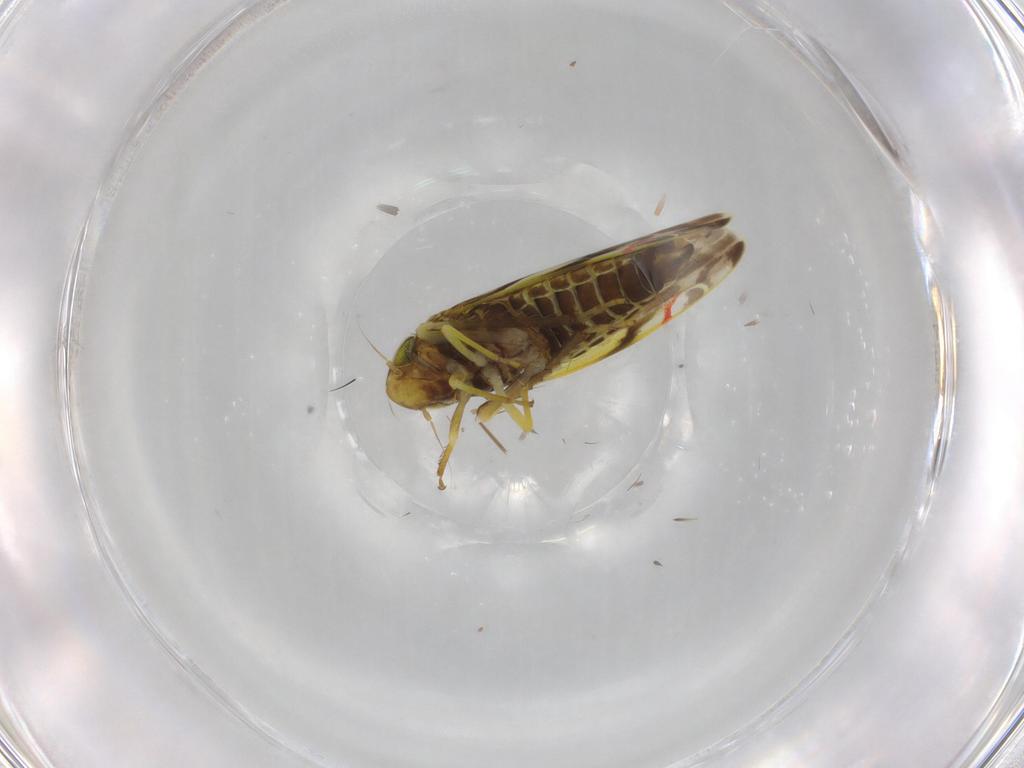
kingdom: Animalia
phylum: Arthropoda
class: Insecta
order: Hemiptera
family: Cicadellidae
